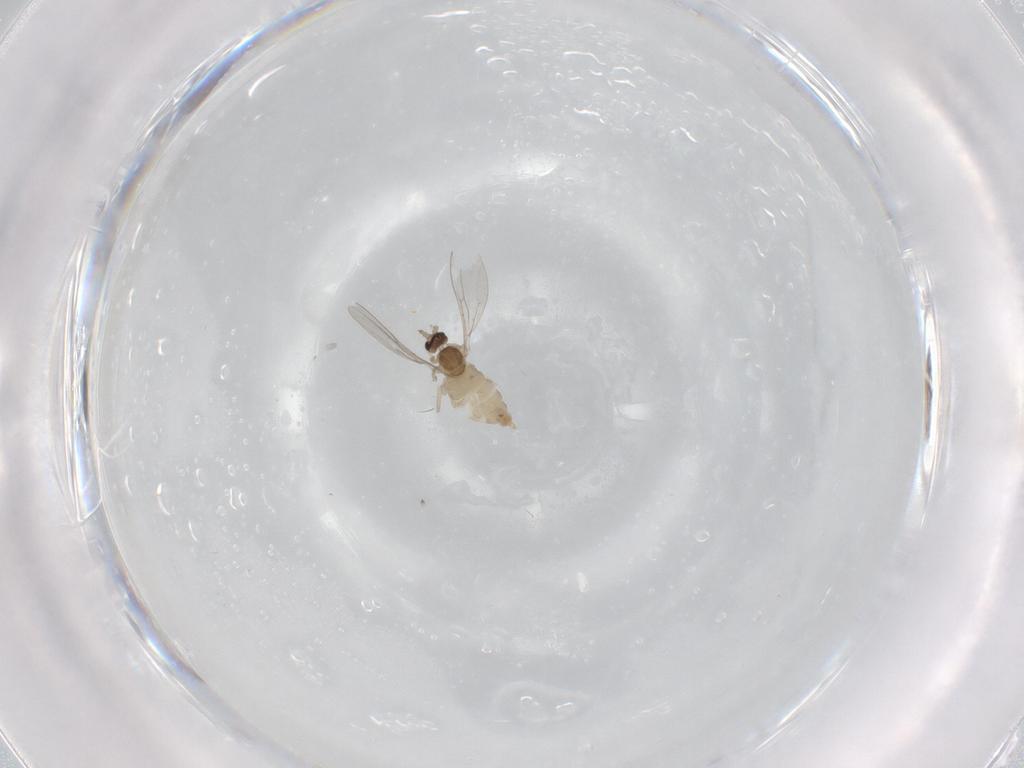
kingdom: Animalia
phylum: Arthropoda
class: Insecta
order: Diptera
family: Cecidomyiidae
